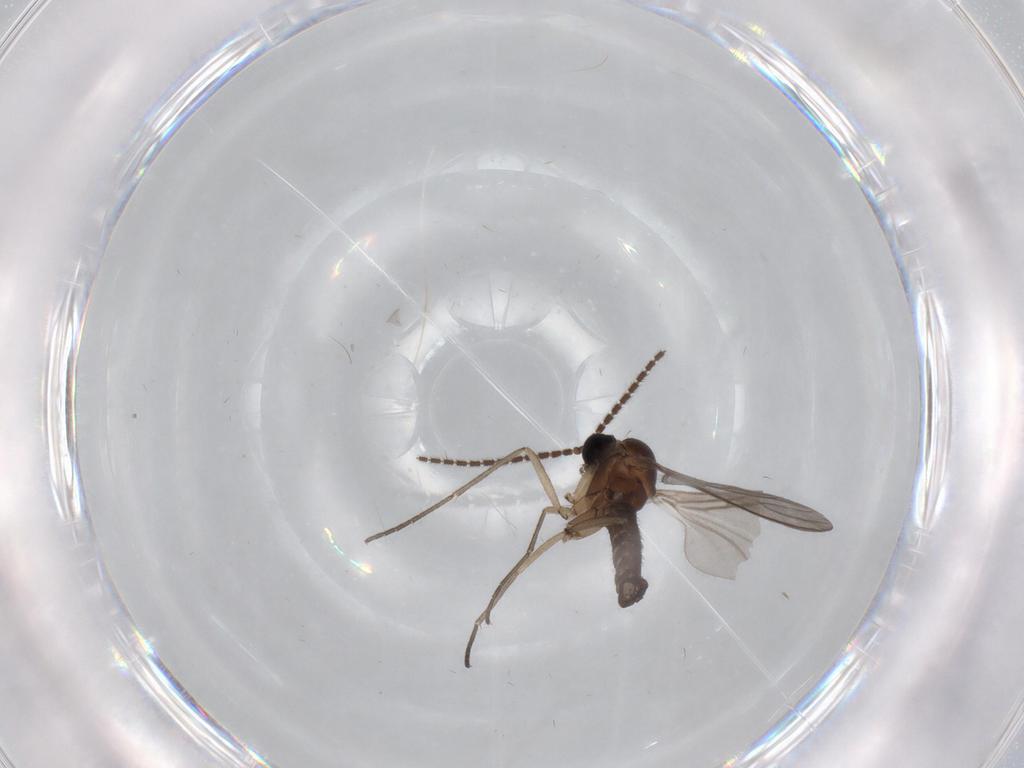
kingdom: Animalia
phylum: Arthropoda
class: Insecta
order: Diptera
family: Sciaridae
